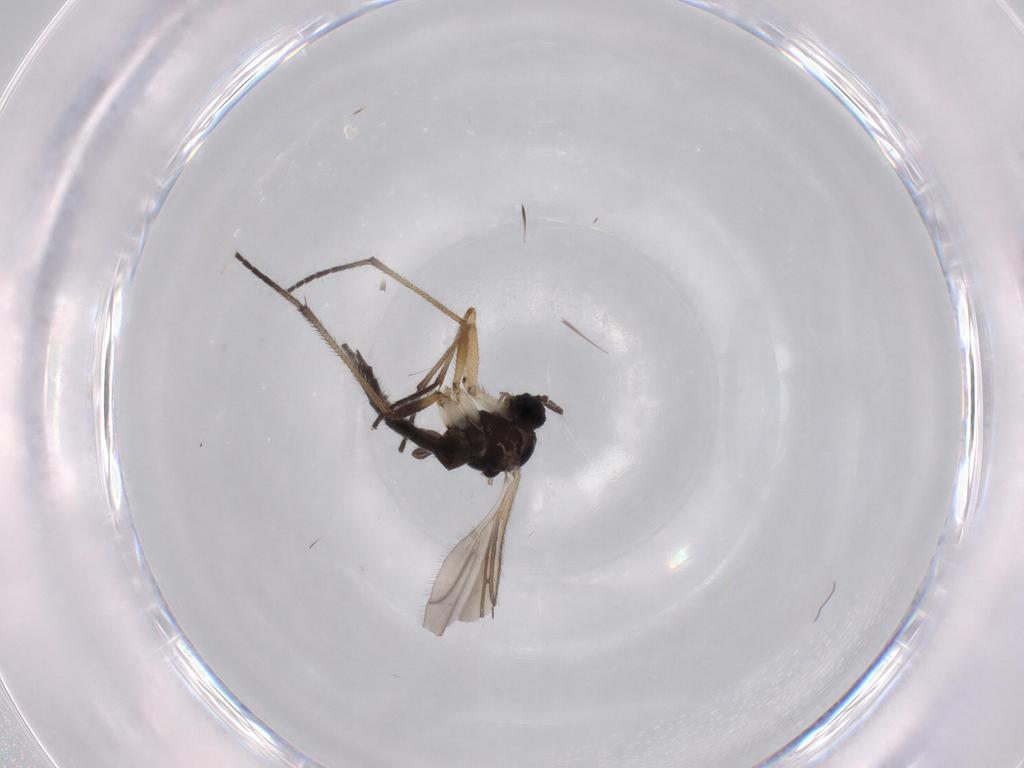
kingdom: Animalia
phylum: Arthropoda
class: Insecta
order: Diptera
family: Sciaridae
